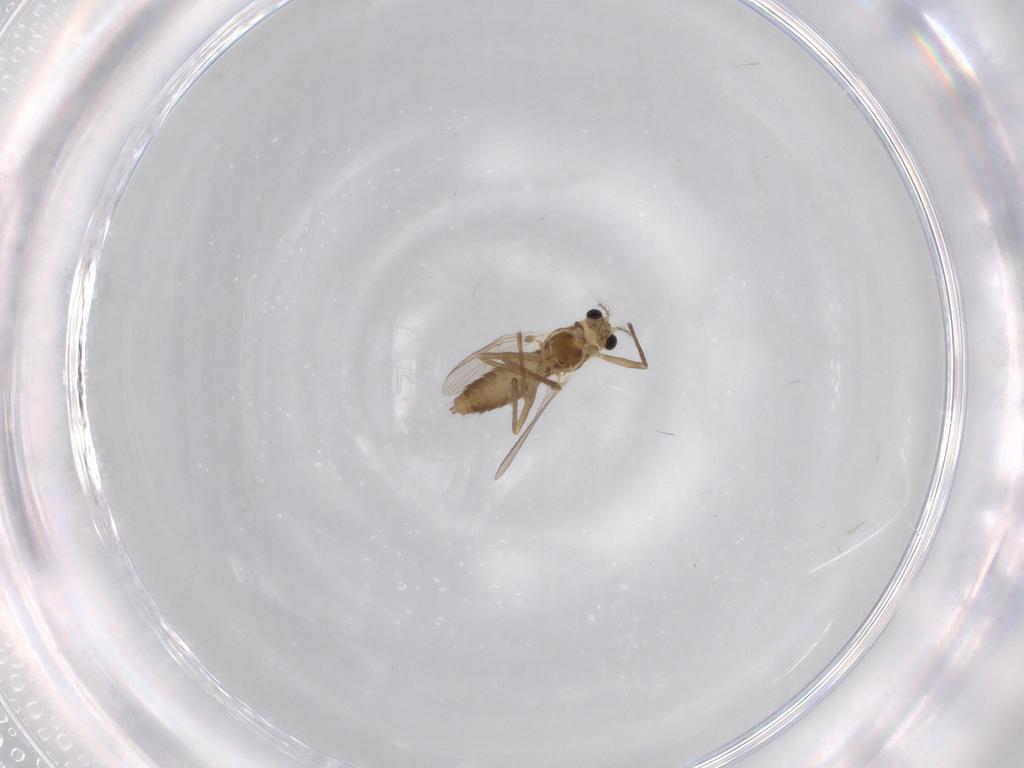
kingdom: Animalia
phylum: Arthropoda
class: Insecta
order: Diptera
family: Chironomidae
